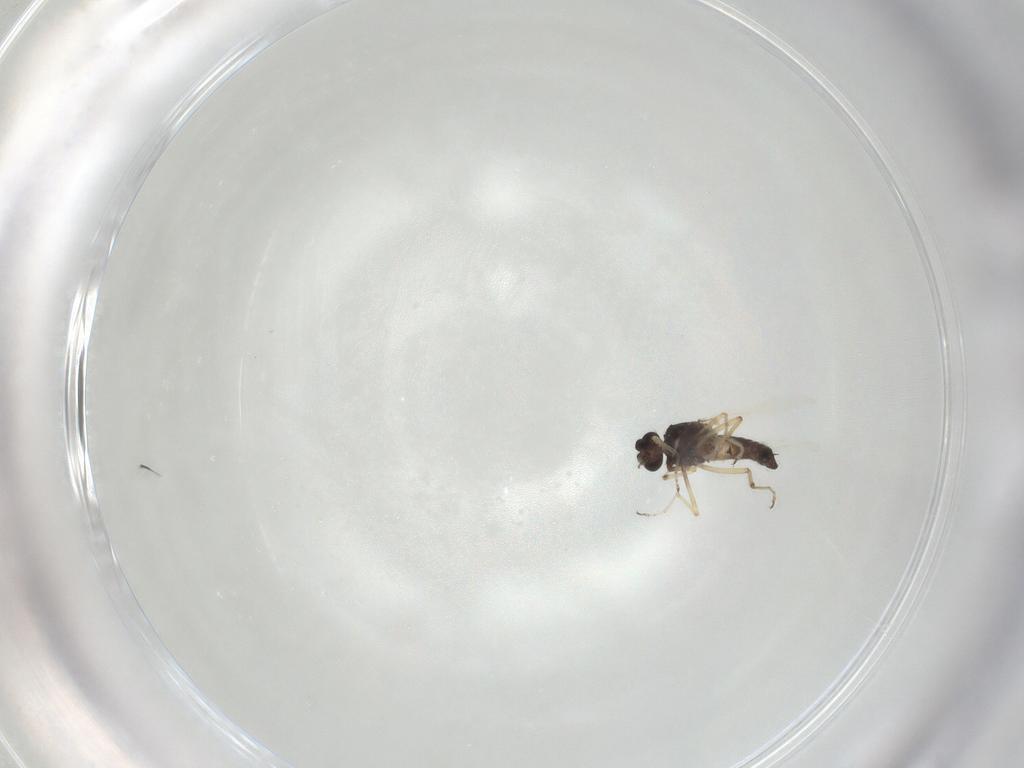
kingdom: Animalia
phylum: Arthropoda
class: Insecta
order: Diptera
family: Ceratopogonidae
